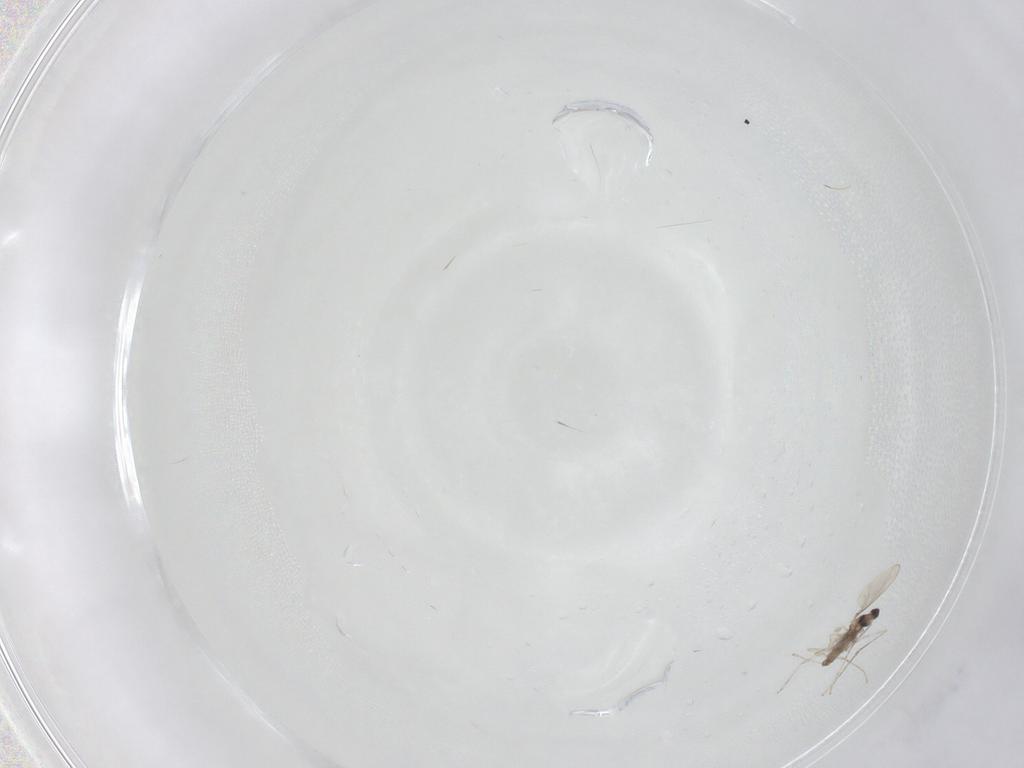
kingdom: Animalia
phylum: Arthropoda
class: Insecta
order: Diptera
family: Cecidomyiidae
